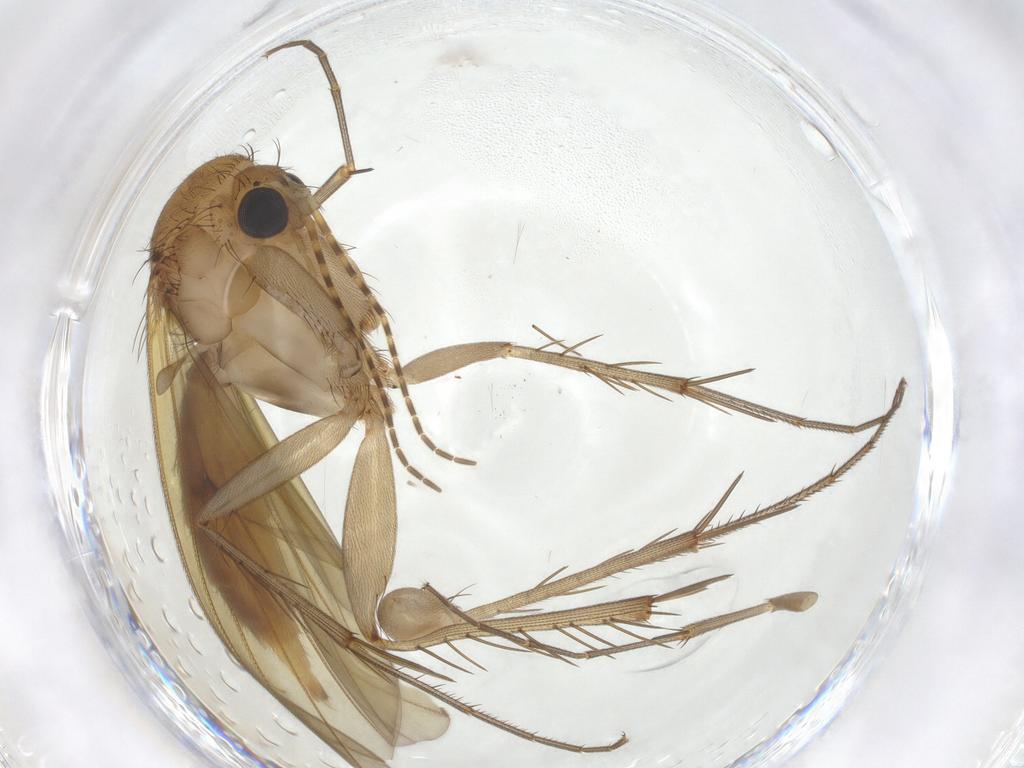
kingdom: Animalia
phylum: Arthropoda
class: Insecta
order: Diptera
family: Mycetophilidae
